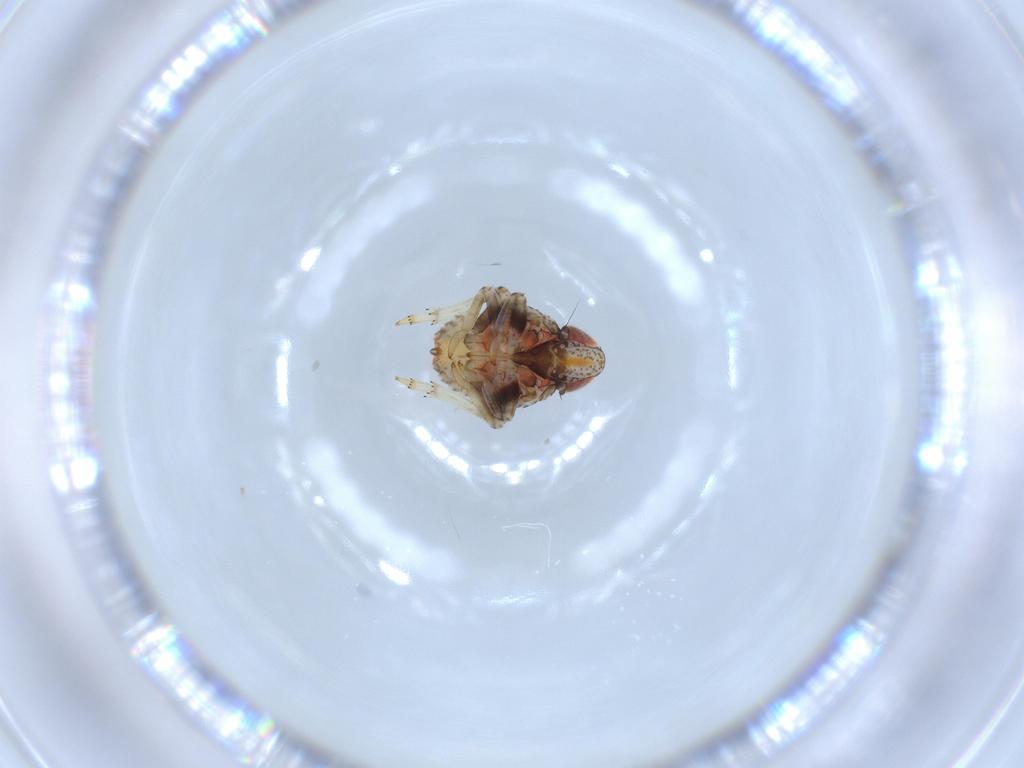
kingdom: Animalia
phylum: Arthropoda
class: Insecta
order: Hemiptera
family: Issidae
